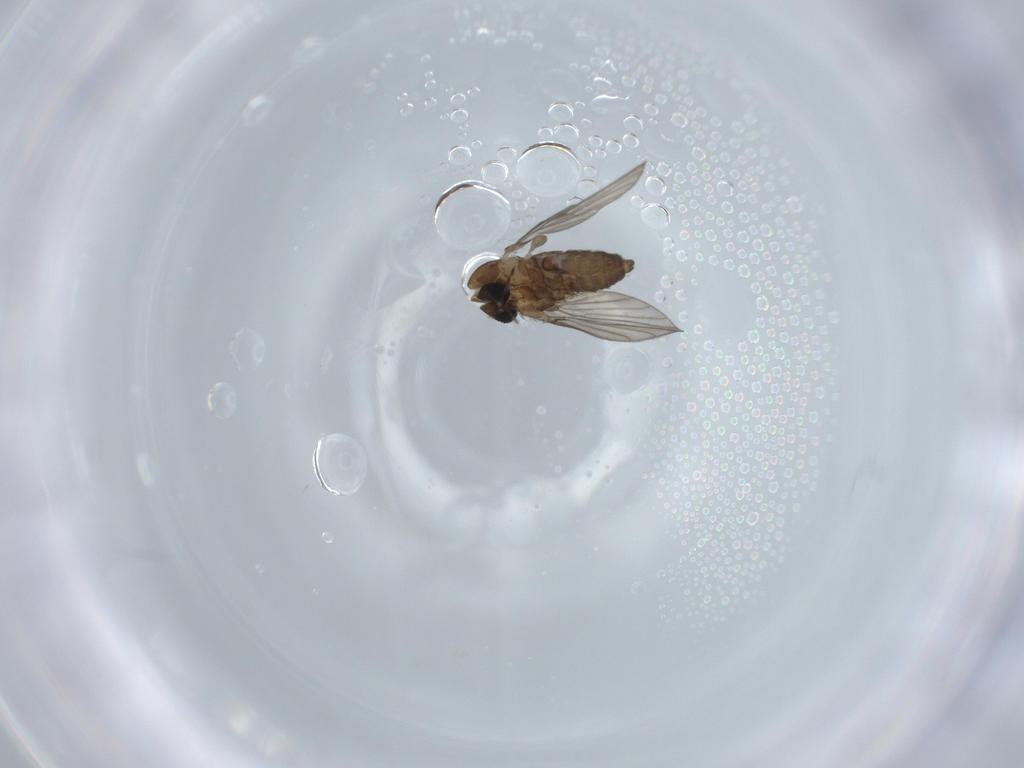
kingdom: Animalia
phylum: Arthropoda
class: Insecta
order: Diptera
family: Psychodidae
